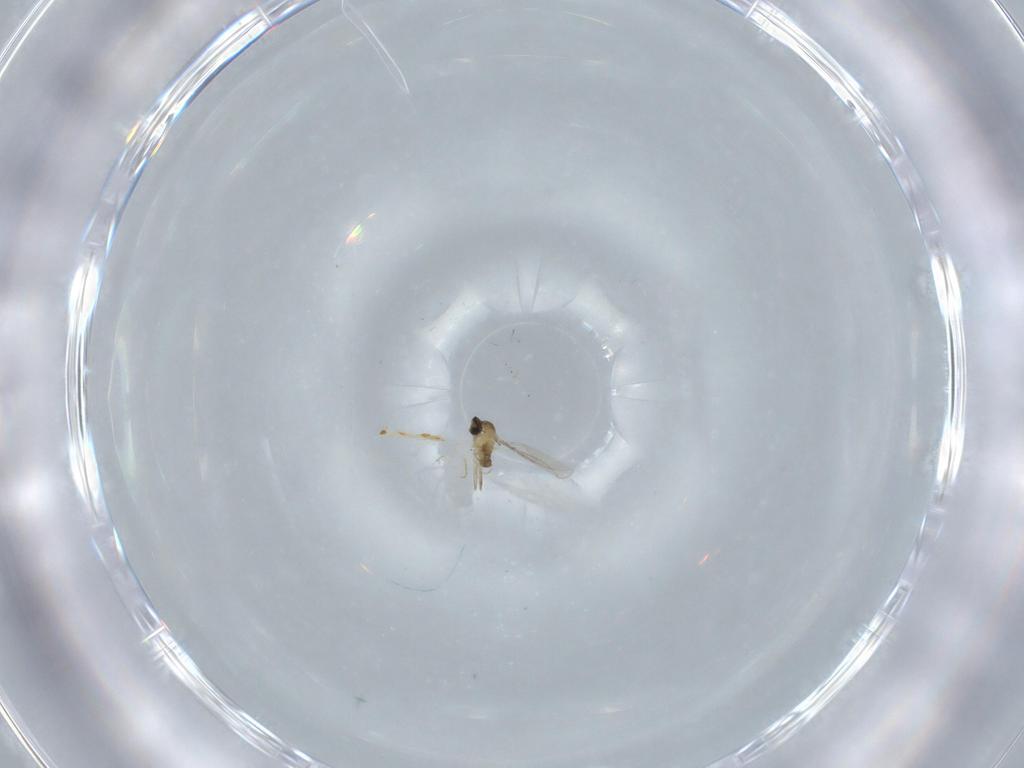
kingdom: Animalia
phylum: Arthropoda
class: Insecta
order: Diptera
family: Cecidomyiidae
